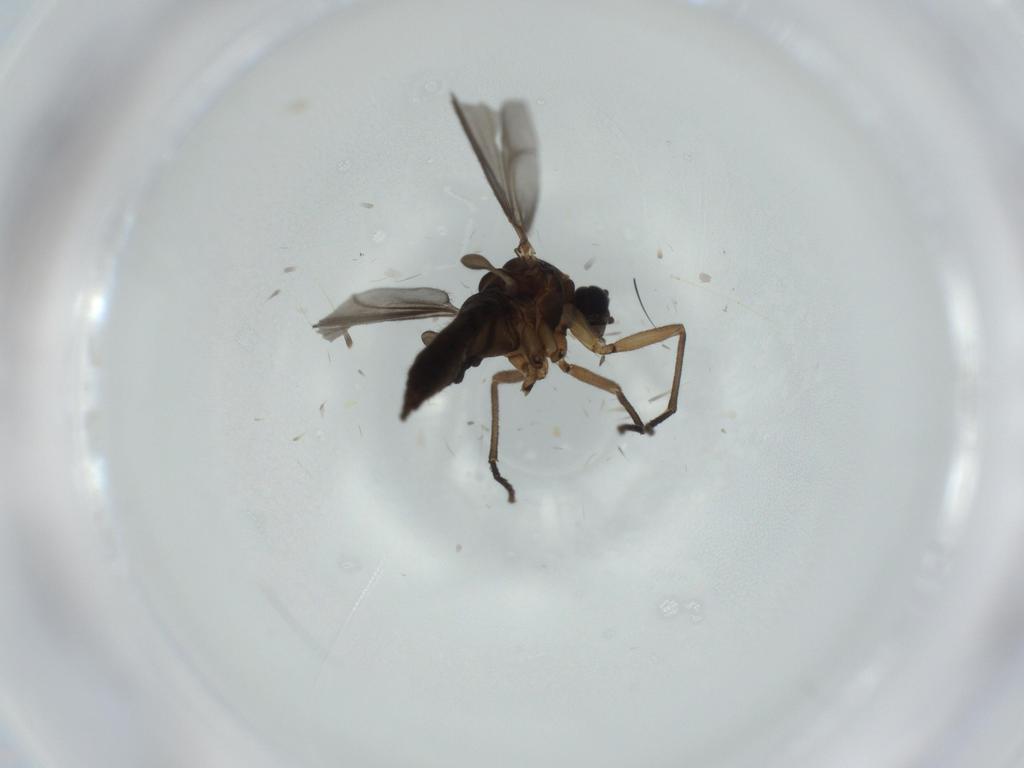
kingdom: Animalia
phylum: Arthropoda
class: Insecta
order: Diptera
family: Sciaridae
